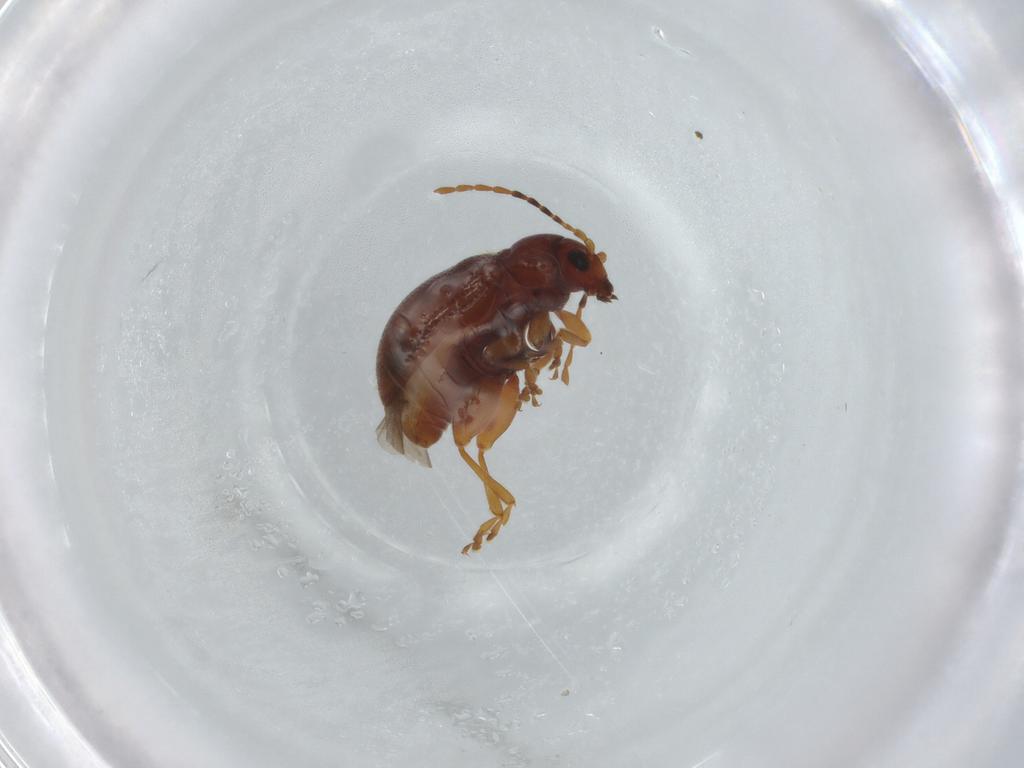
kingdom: Animalia
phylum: Arthropoda
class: Insecta
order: Coleoptera
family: Chrysomelidae
